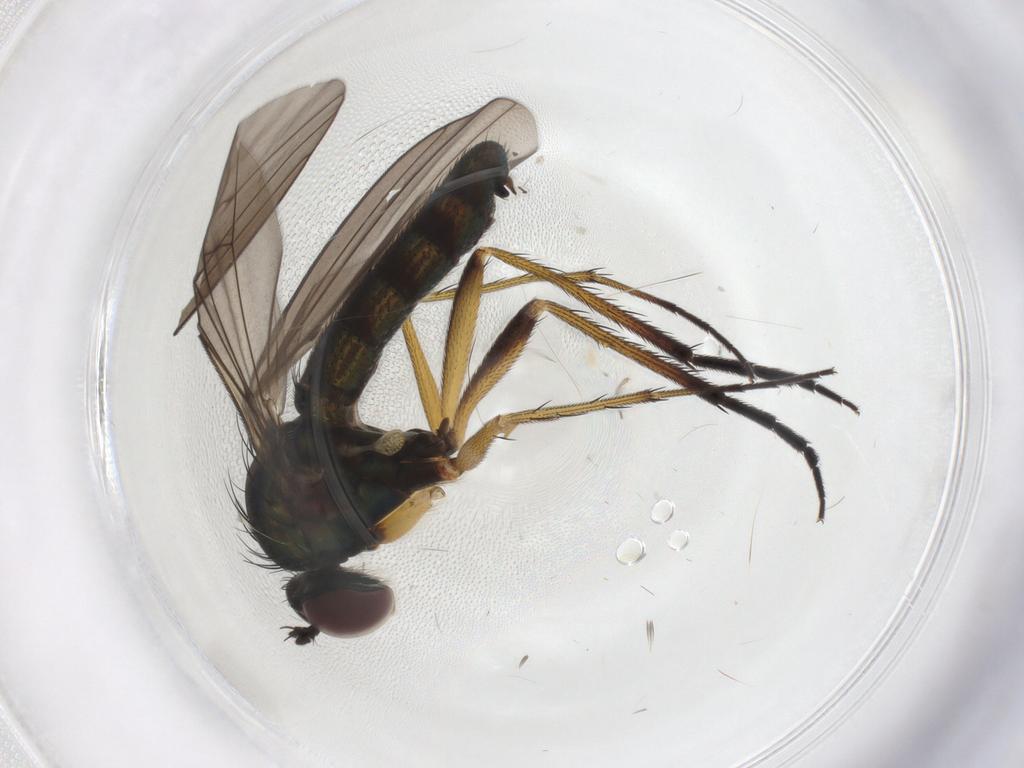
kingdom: Animalia
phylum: Arthropoda
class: Insecta
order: Diptera
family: Dolichopodidae
